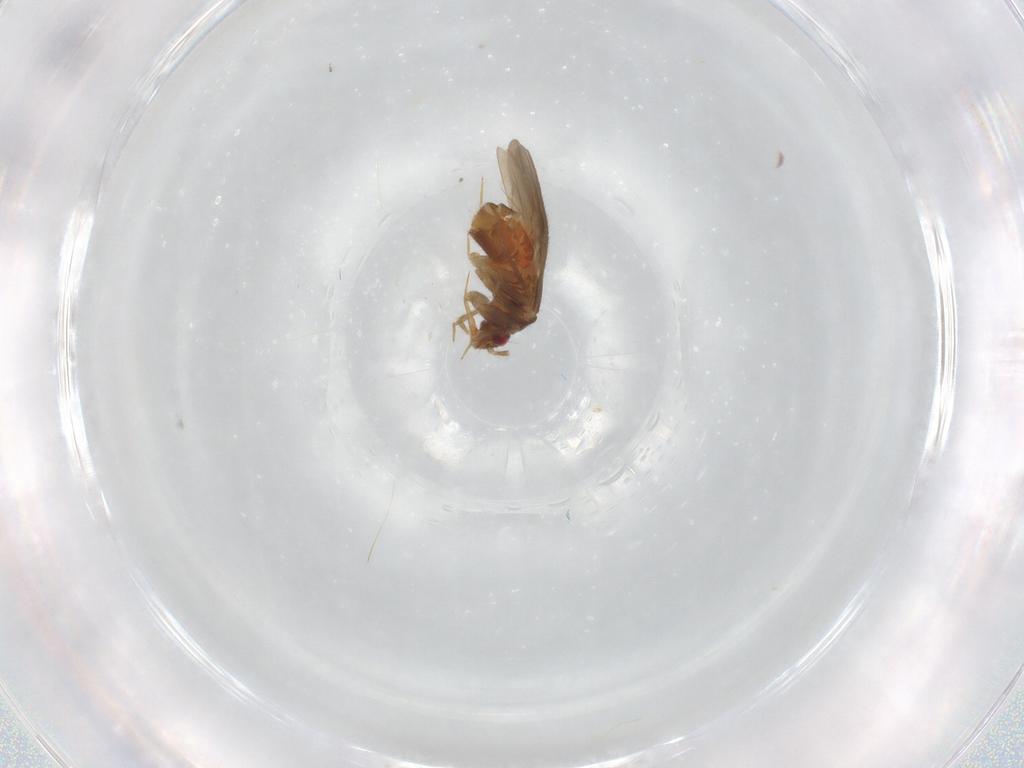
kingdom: Animalia
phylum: Arthropoda
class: Insecta
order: Hemiptera
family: Ceratocombidae
